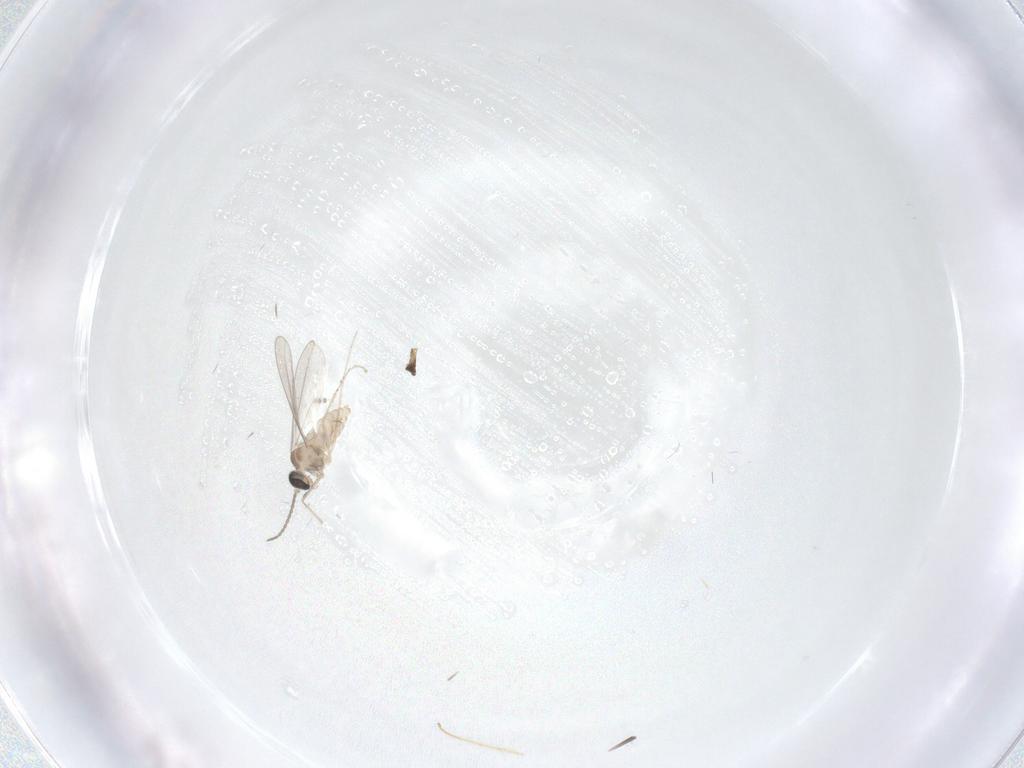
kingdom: Animalia
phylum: Arthropoda
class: Insecta
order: Diptera
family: Cecidomyiidae
